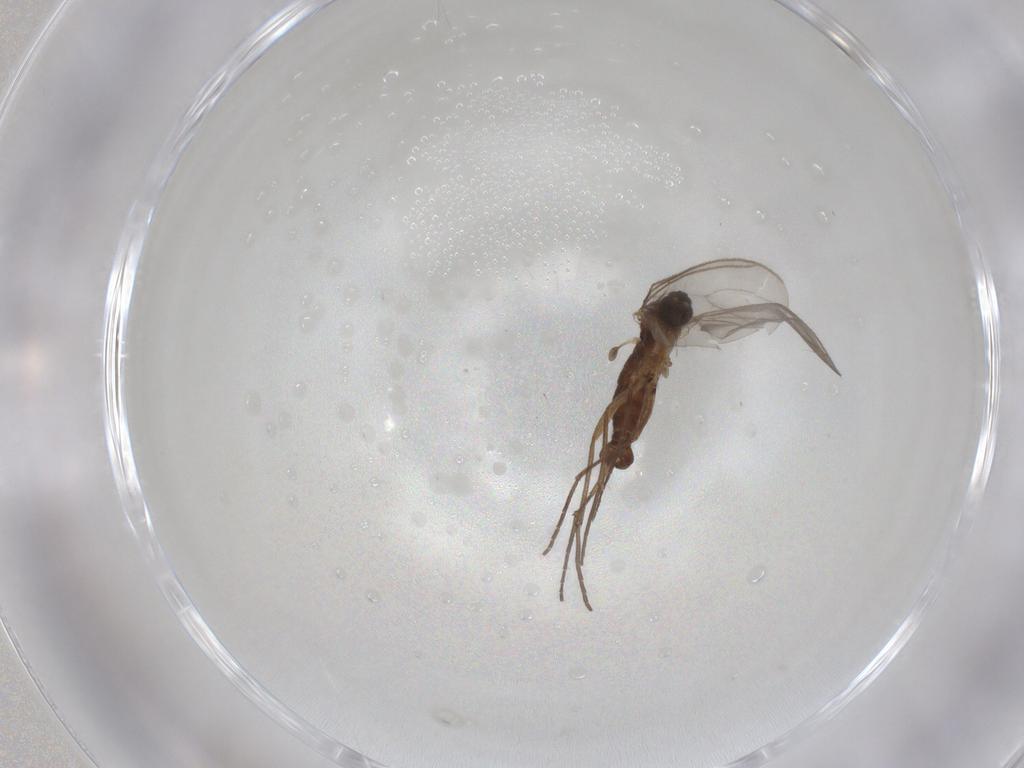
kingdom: Animalia
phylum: Arthropoda
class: Insecta
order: Diptera
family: Sciaridae
